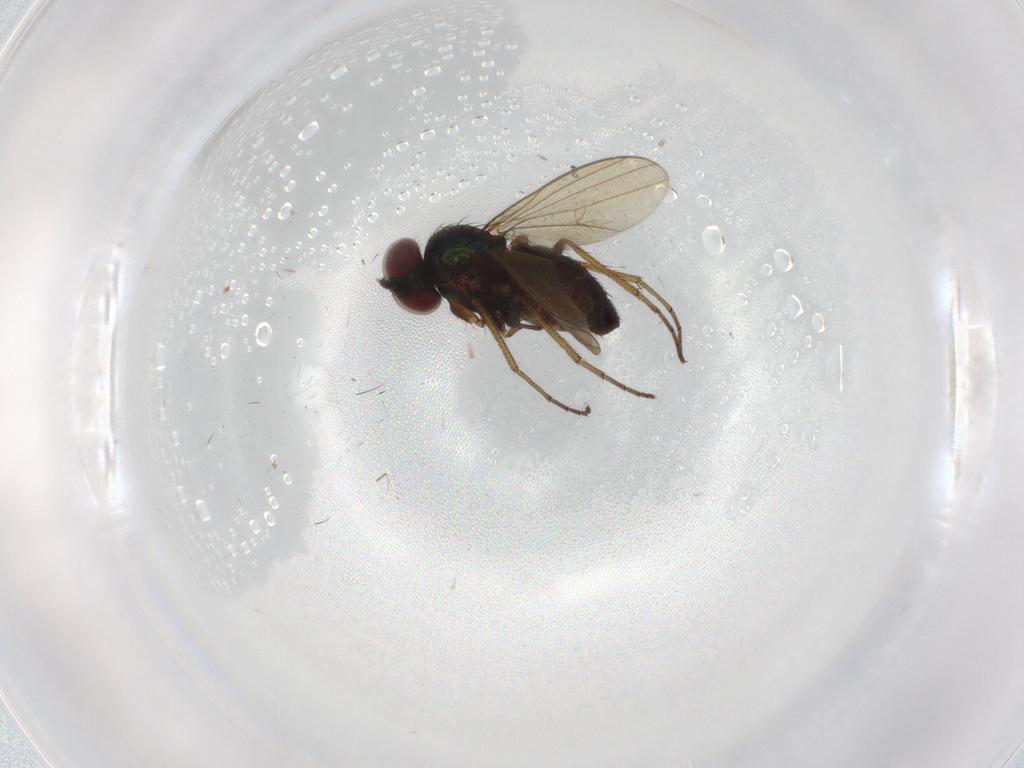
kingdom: Animalia
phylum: Arthropoda
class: Insecta
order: Diptera
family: Dolichopodidae
